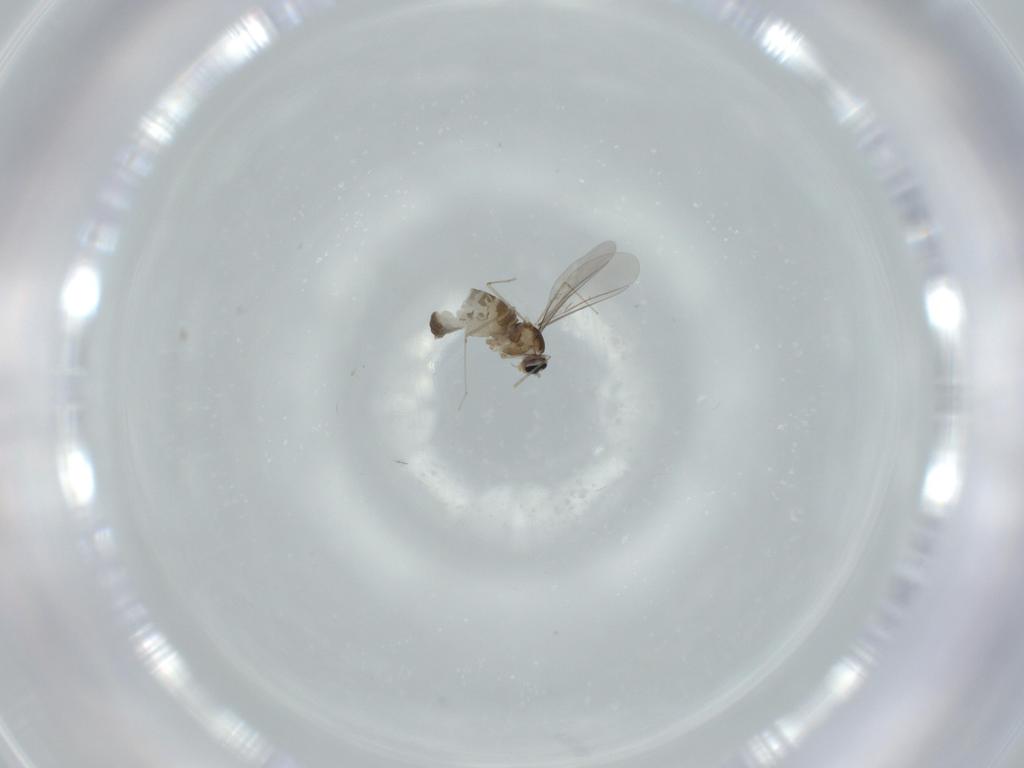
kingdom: Animalia
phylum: Arthropoda
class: Insecta
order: Diptera
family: Cecidomyiidae
